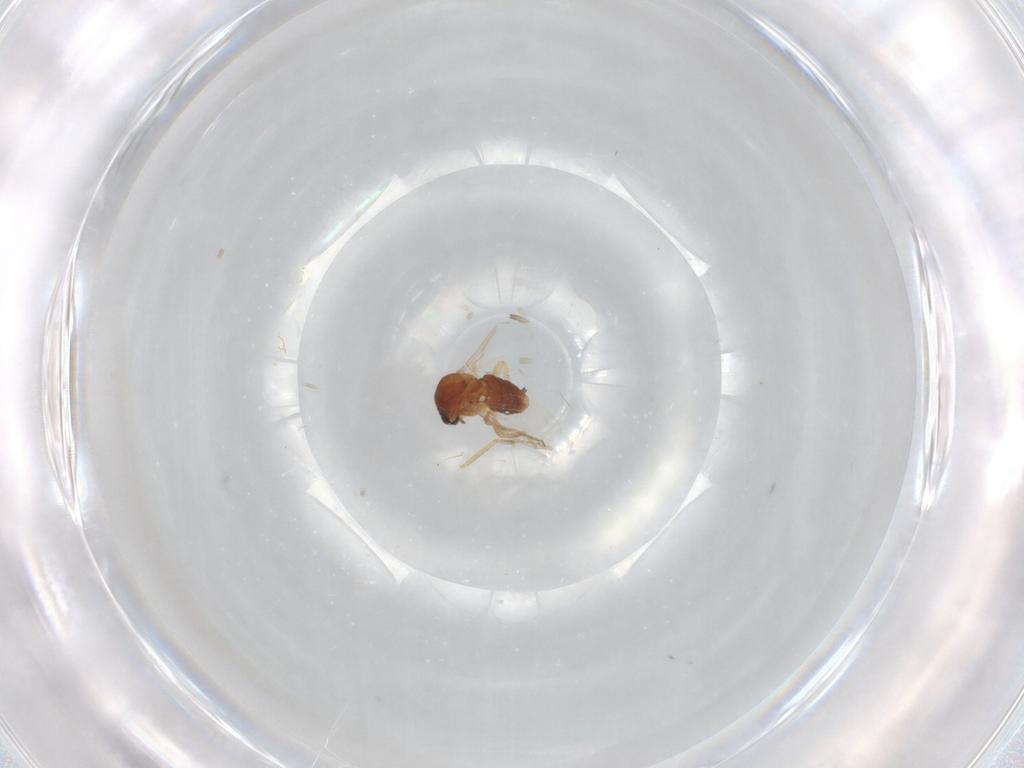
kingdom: Animalia
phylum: Arthropoda
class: Insecta
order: Diptera
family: Ceratopogonidae
